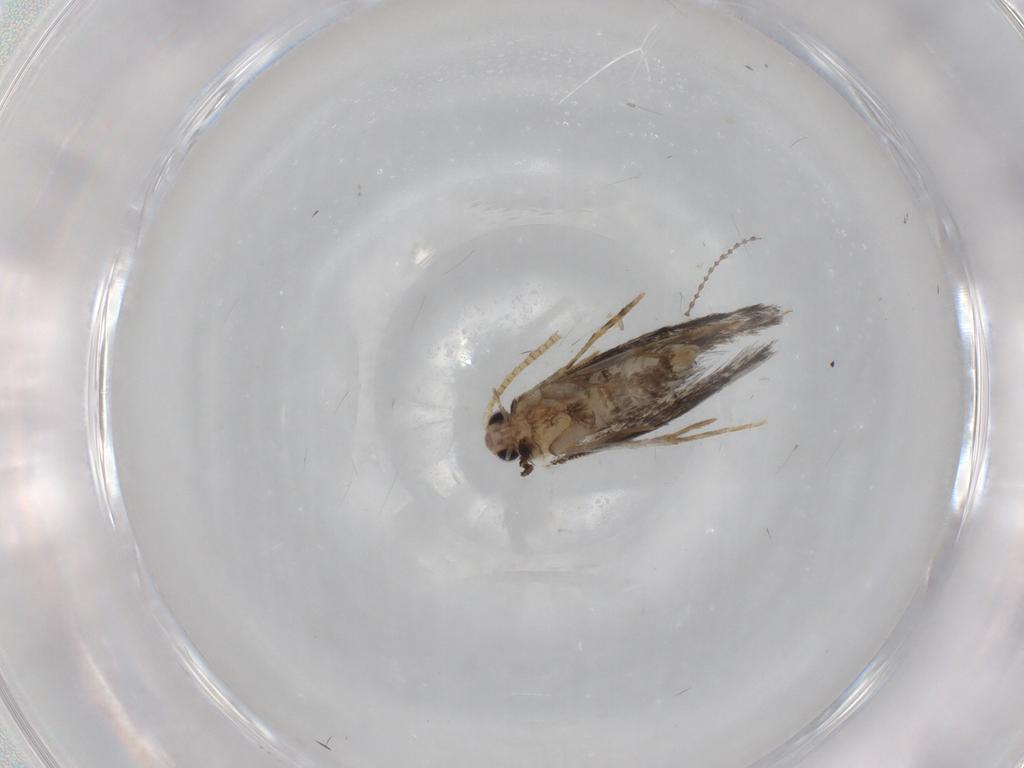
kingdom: Animalia
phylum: Arthropoda
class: Insecta
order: Lepidoptera
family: Tineidae
